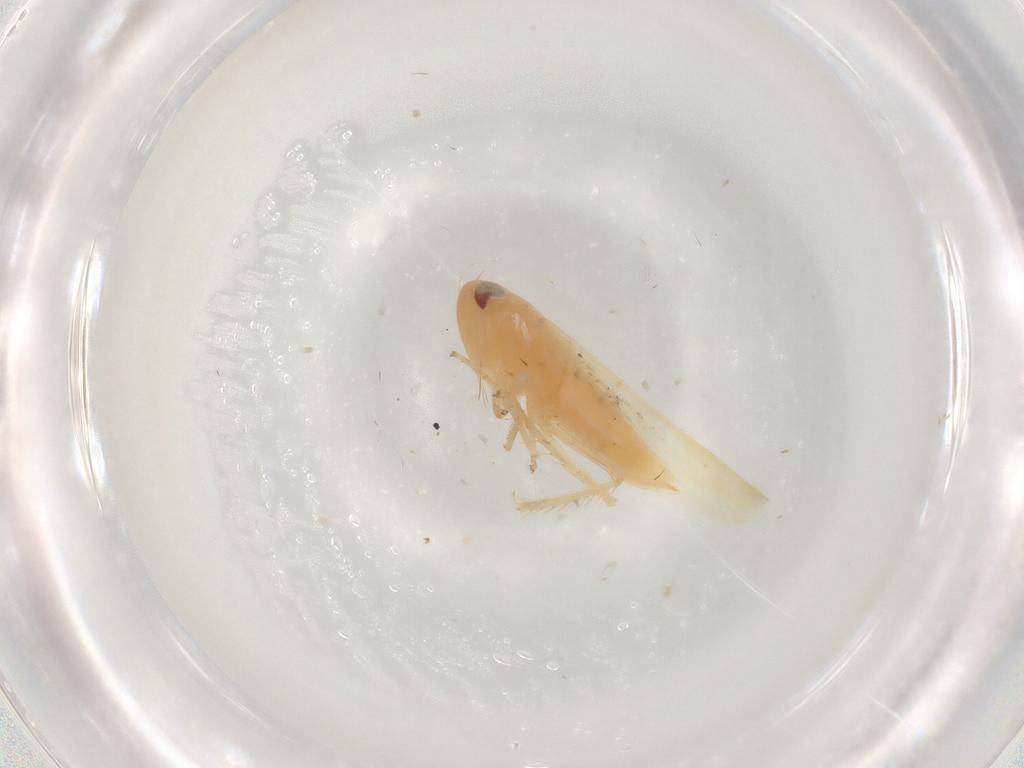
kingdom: Animalia
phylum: Arthropoda
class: Insecta
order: Hemiptera
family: Cicadellidae
